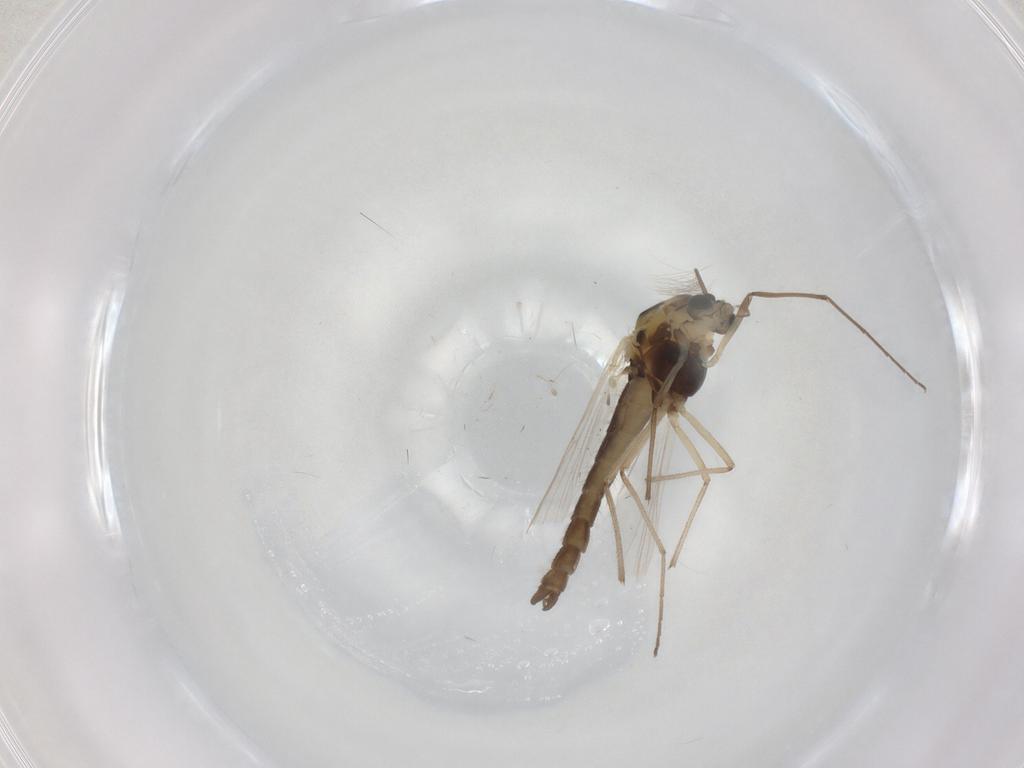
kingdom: Animalia
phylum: Arthropoda
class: Insecta
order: Diptera
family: Chironomidae
